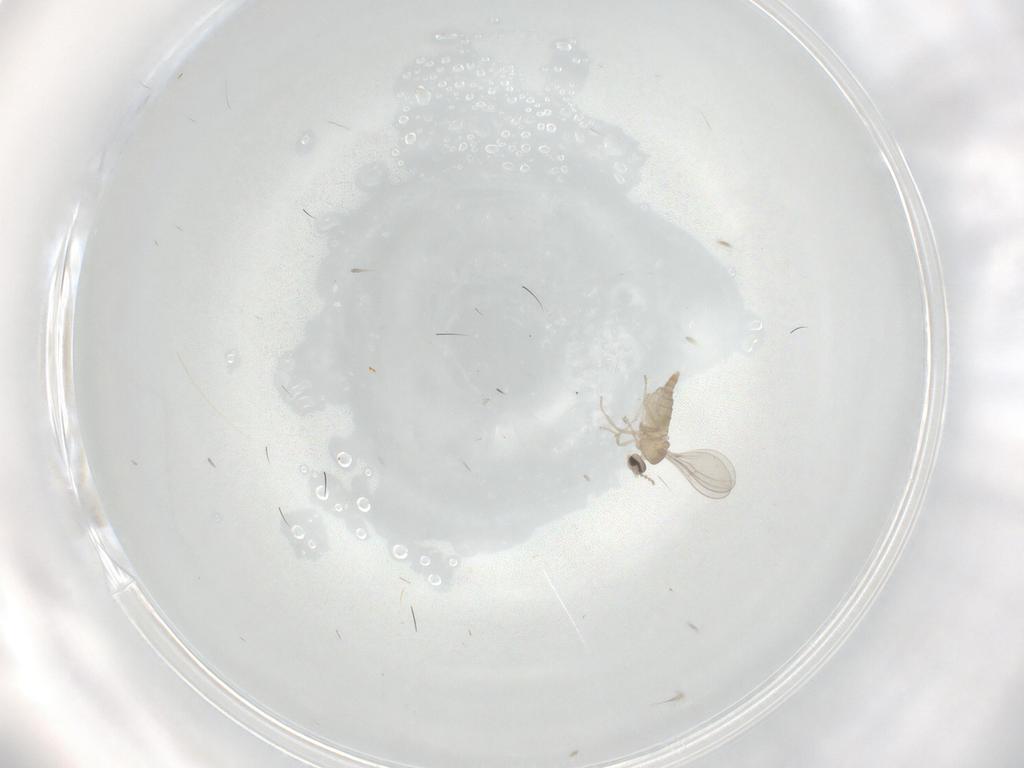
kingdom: Animalia
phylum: Arthropoda
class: Insecta
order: Diptera
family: Cecidomyiidae
